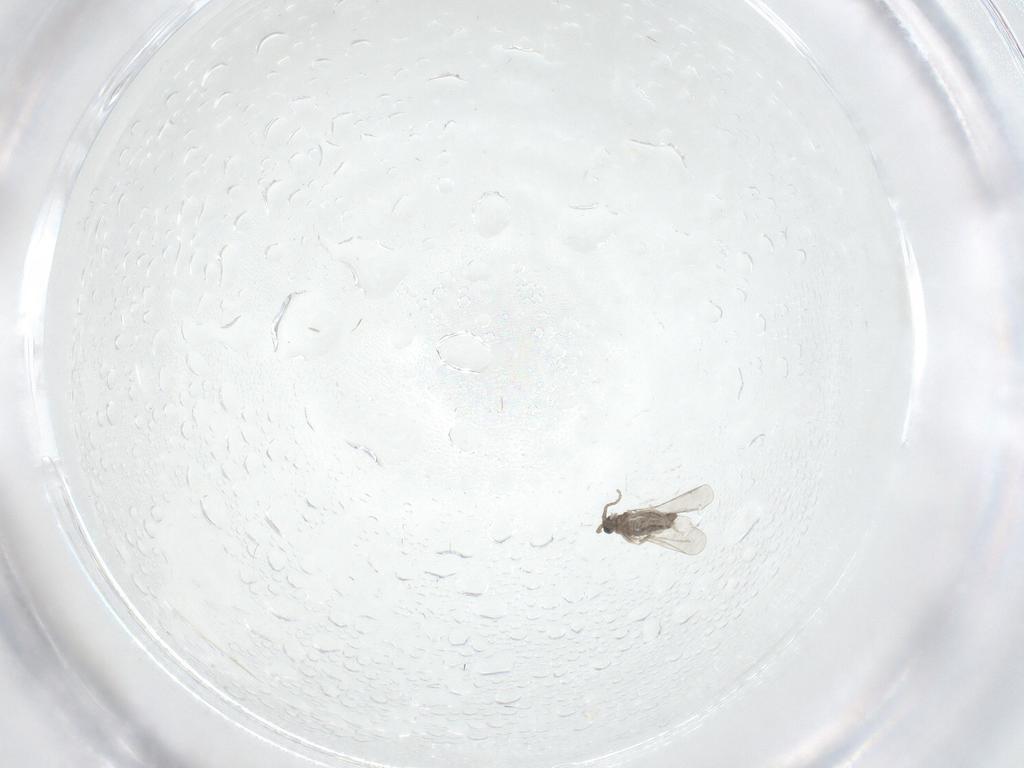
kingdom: Animalia
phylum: Arthropoda
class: Insecta
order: Diptera
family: Cecidomyiidae
